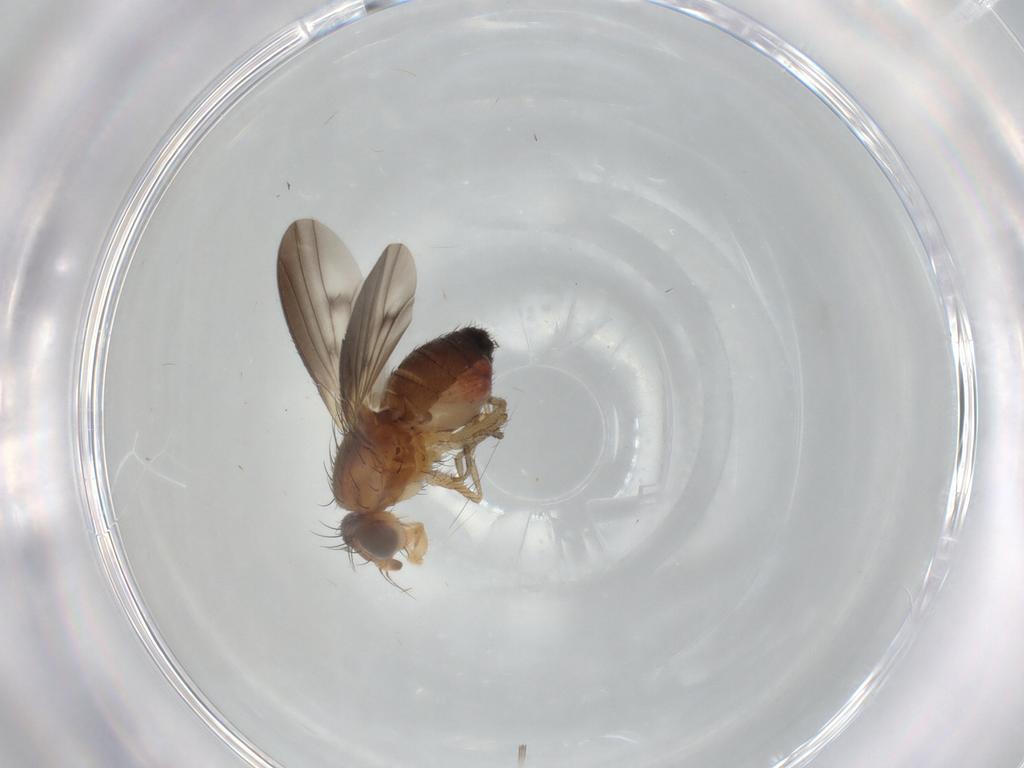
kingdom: Animalia
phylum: Arthropoda
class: Insecta
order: Diptera
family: Heleomyzidae
